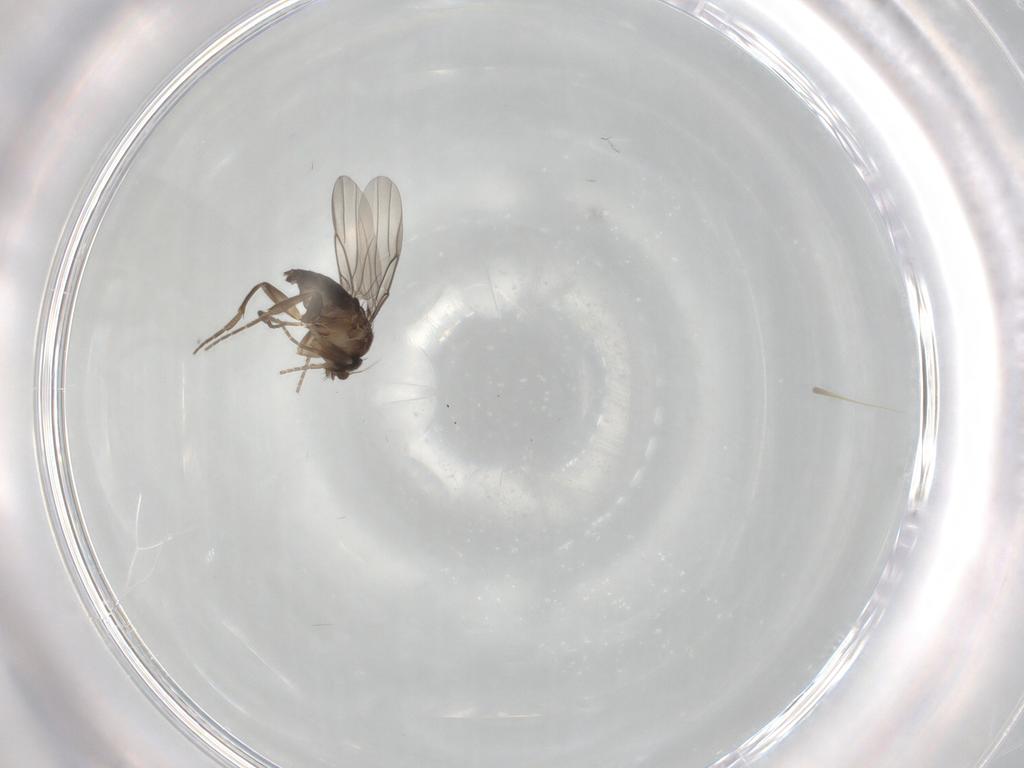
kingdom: Animalia
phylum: Arthropoda
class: Insecta
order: Diptera
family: Phoridae
